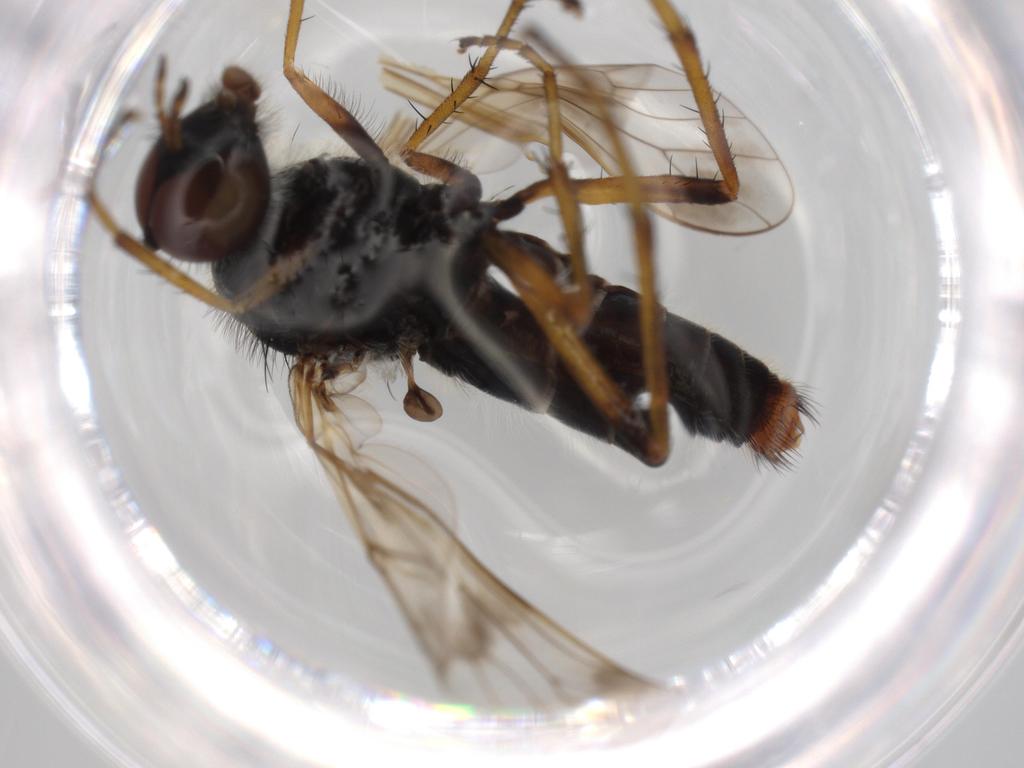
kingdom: Animalia
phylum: Arthropoda
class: Insecta
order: Diptera
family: Therevidae
